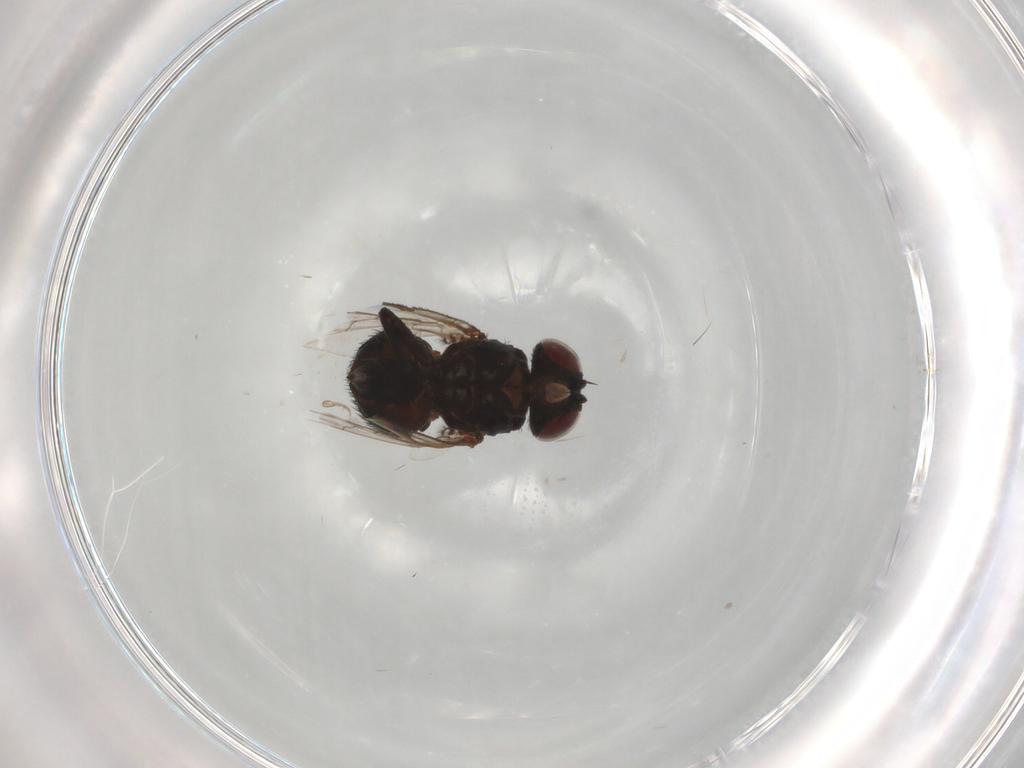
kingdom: Animalia
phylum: Arthropoda
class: Insecta
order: Diptera
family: Agromyzidae
